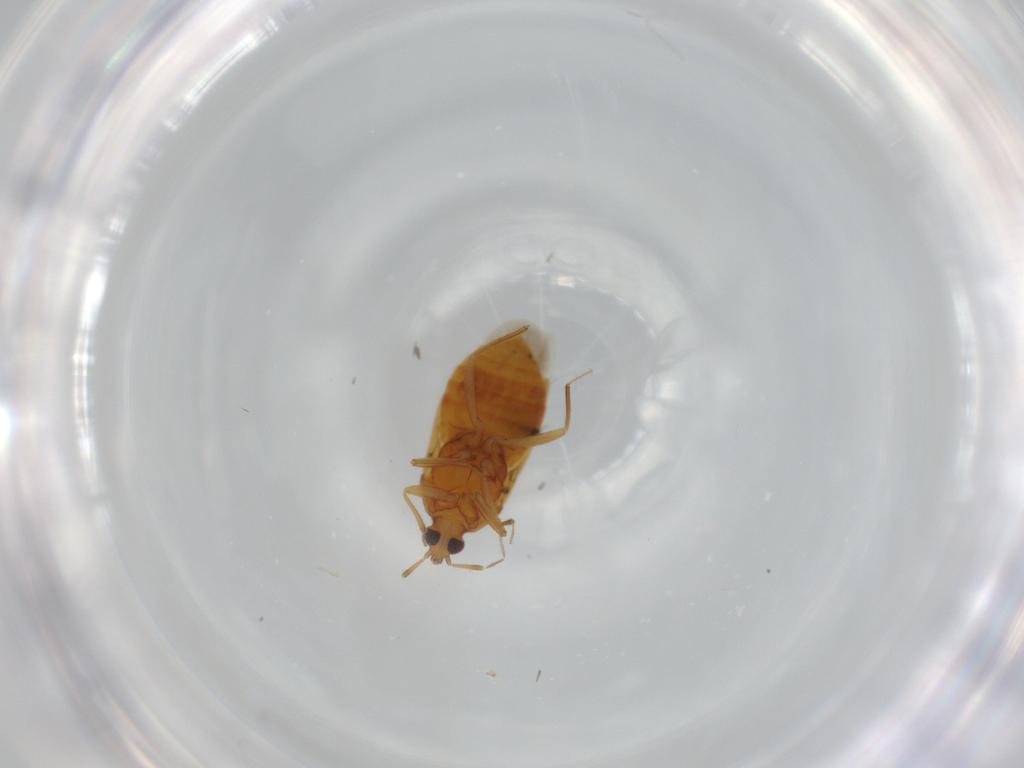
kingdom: Animalia
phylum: Arthropoda
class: Insecta
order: Hemiptera
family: Anthocoridae
